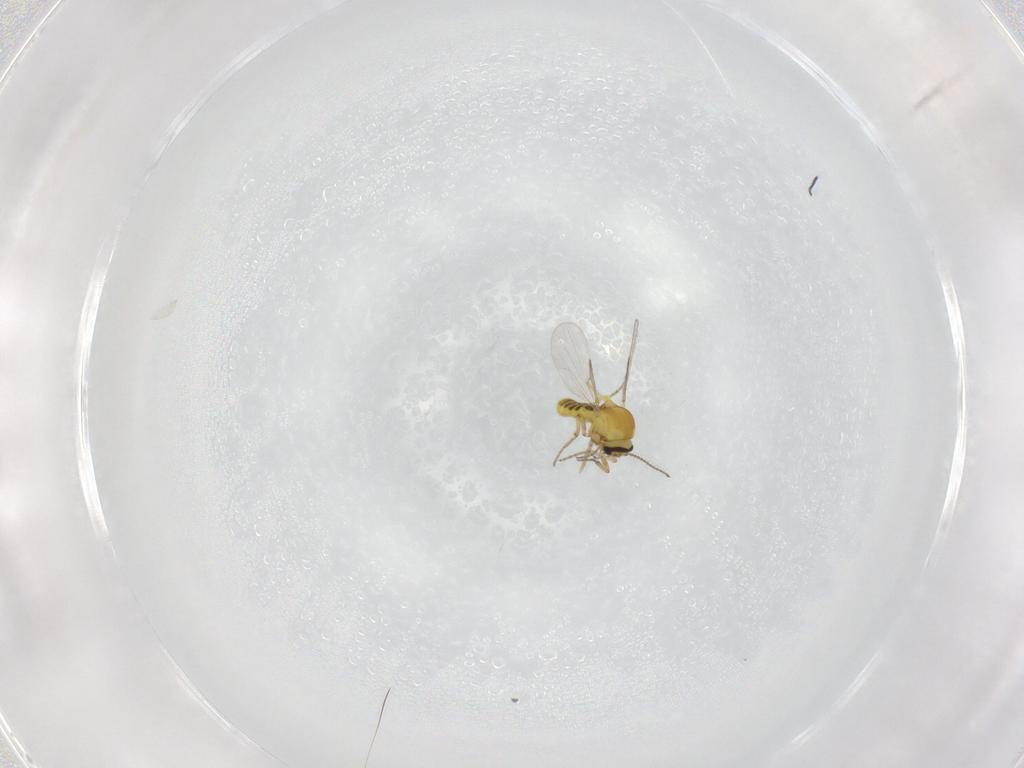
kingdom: Animalia
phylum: Arthropoda
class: Insecta
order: Diptera
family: Ceratopogonidae
